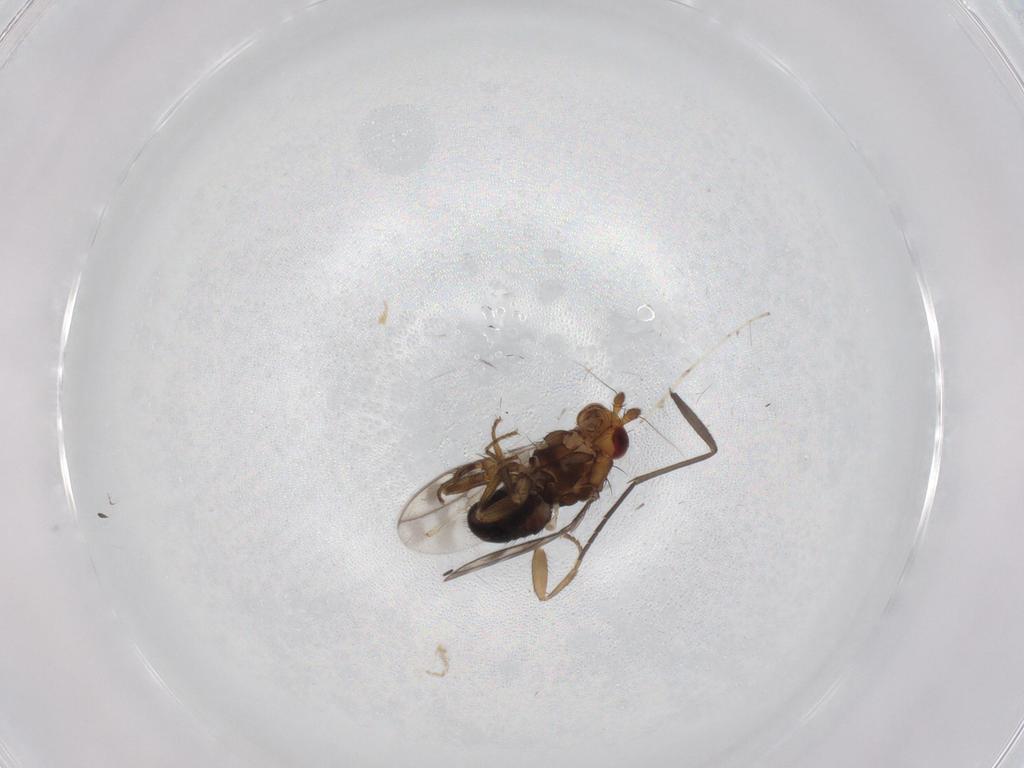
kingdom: Animalia
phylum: Arthropoda
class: Insecta
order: Diptera
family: Sphaeroceridae
